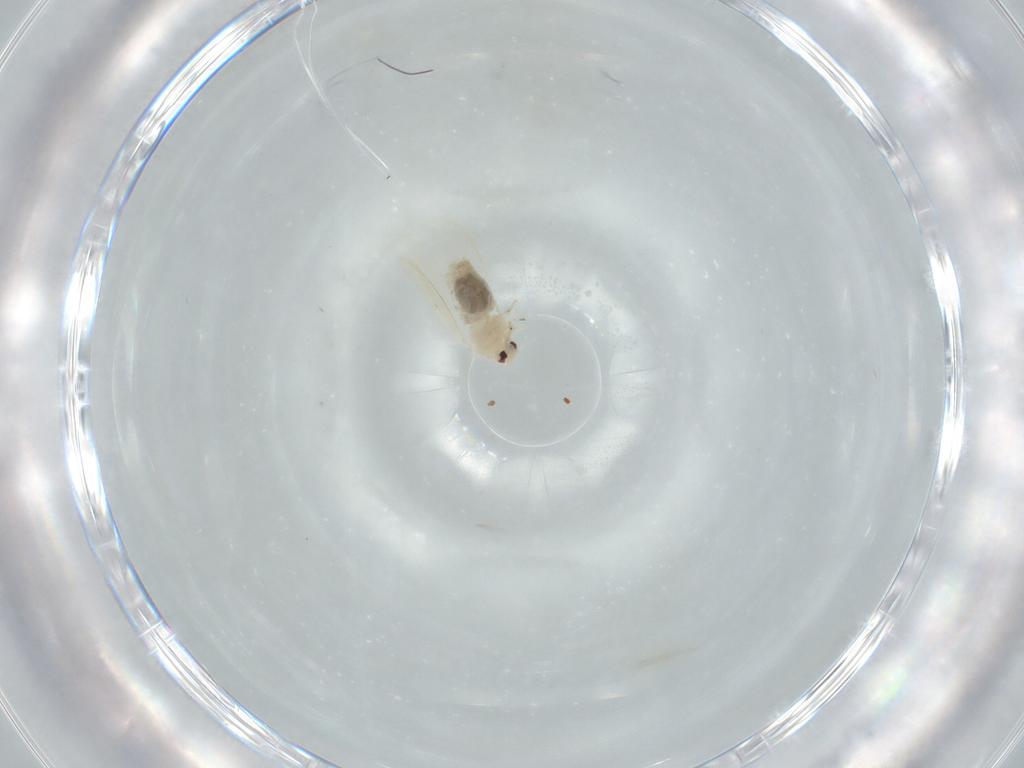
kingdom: Animalia
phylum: Arthropoda
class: Insecta
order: Hemiptera
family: Aleyrodidae
